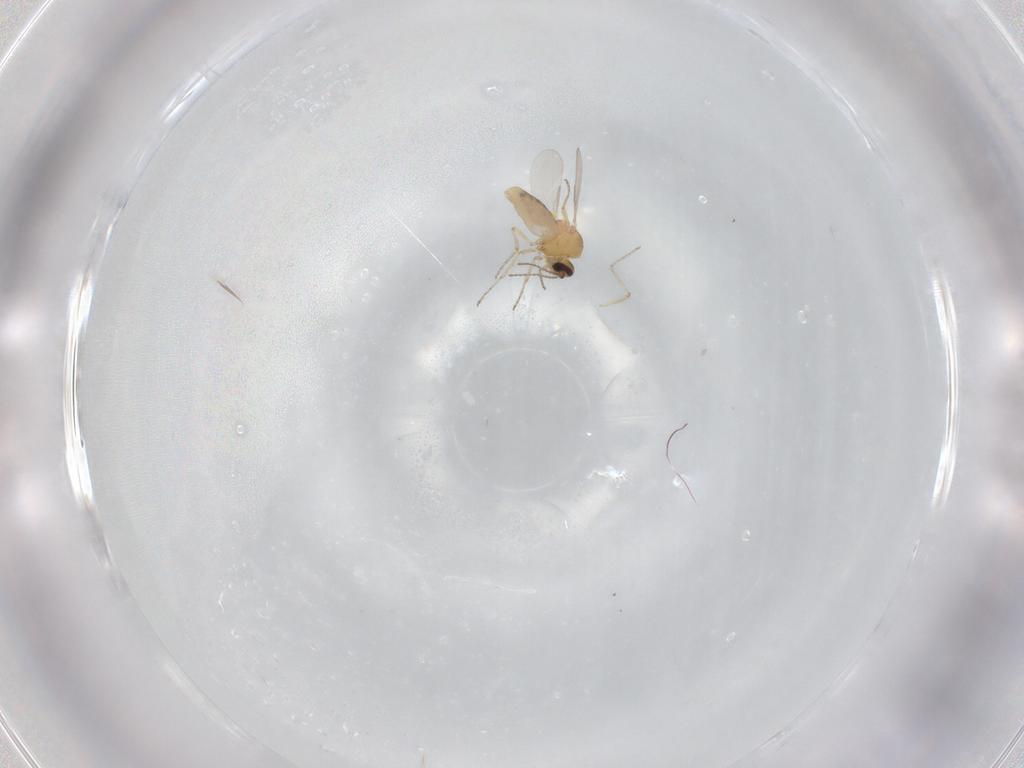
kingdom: Animalia
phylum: Arthropoda
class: Insecta
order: Diptera
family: Ceratopogonidae
